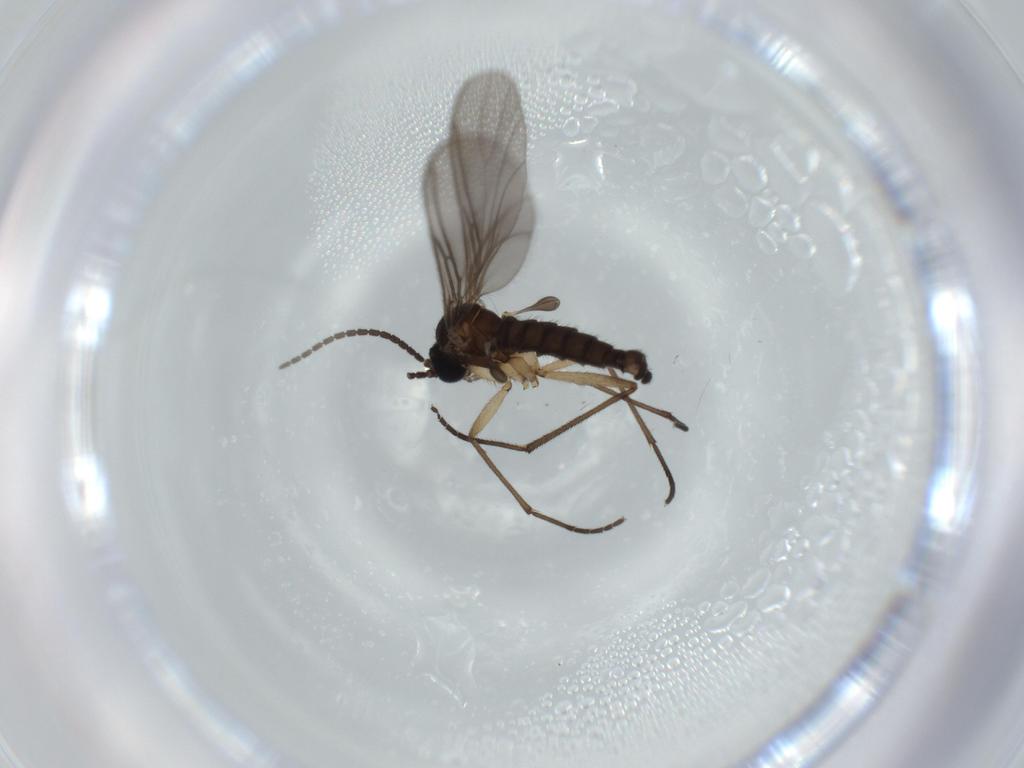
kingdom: Animalia
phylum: Arthropoda
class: Insecta
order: Diptera
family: Sciaridae
